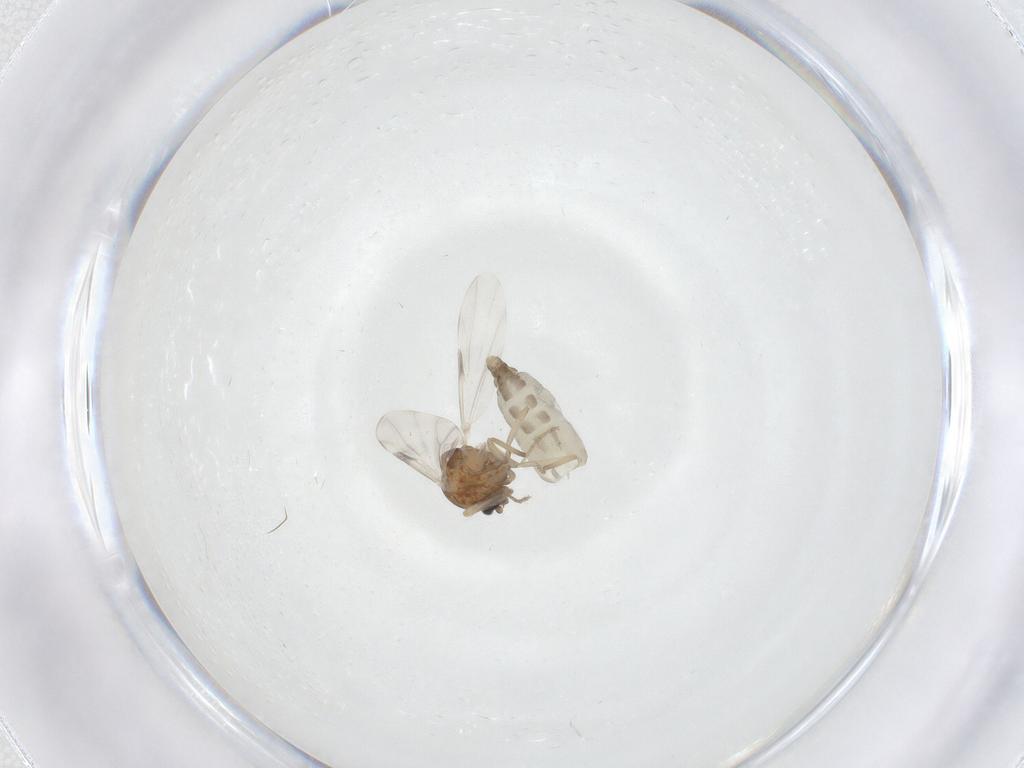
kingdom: Animalia
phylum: Arthropoda
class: Insecta
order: Diptera
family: Ceratopogonidae
